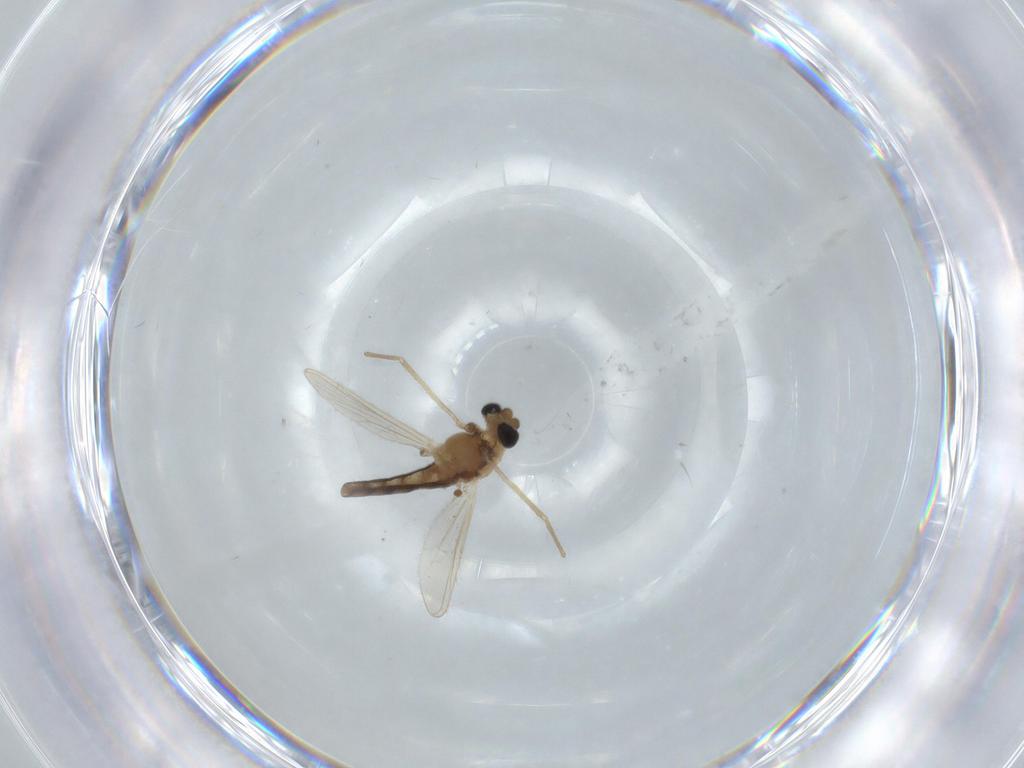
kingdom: Animalia
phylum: Arthropoda
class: Insecta
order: Diptera
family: Chironomidae
